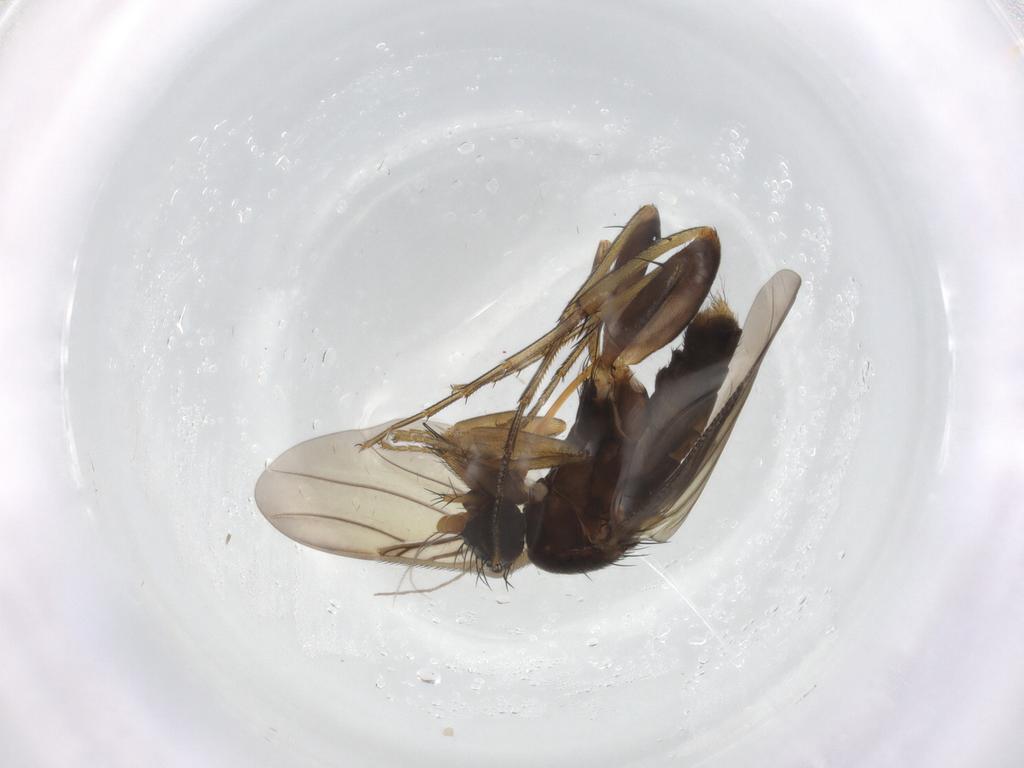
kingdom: Animalia
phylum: Arthropoda
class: Insecta
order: Diptera
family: Phoridae
